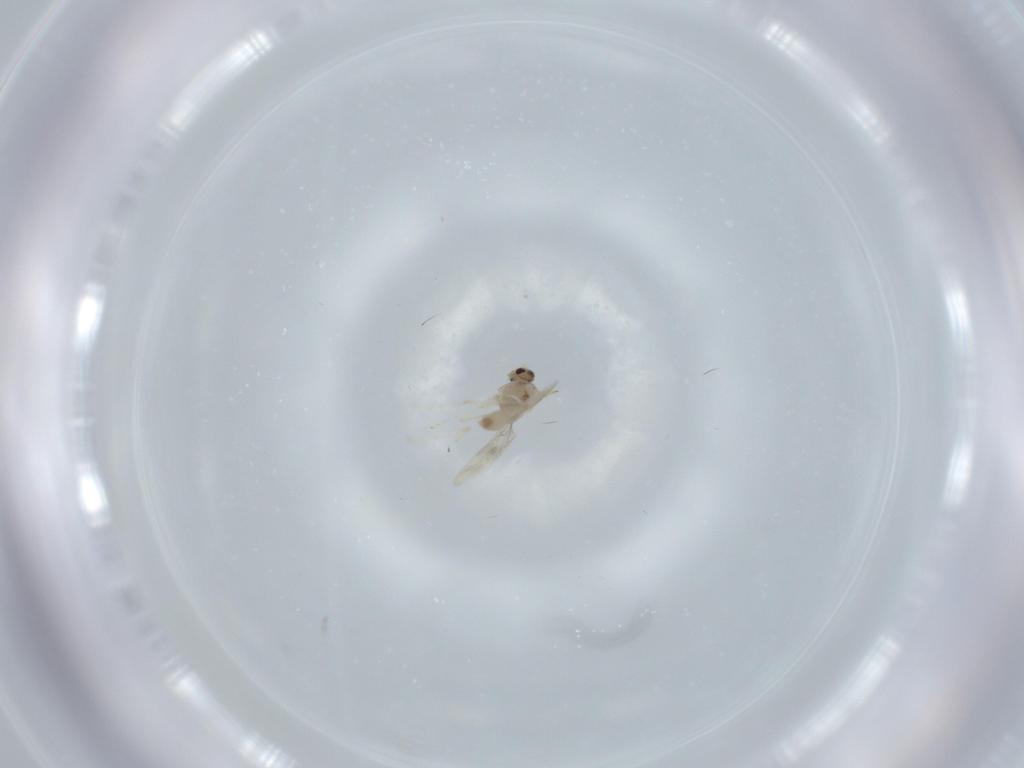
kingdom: Animalia
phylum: Arthropoda
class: Insecta
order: Diptera
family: Cecidomyiidae
